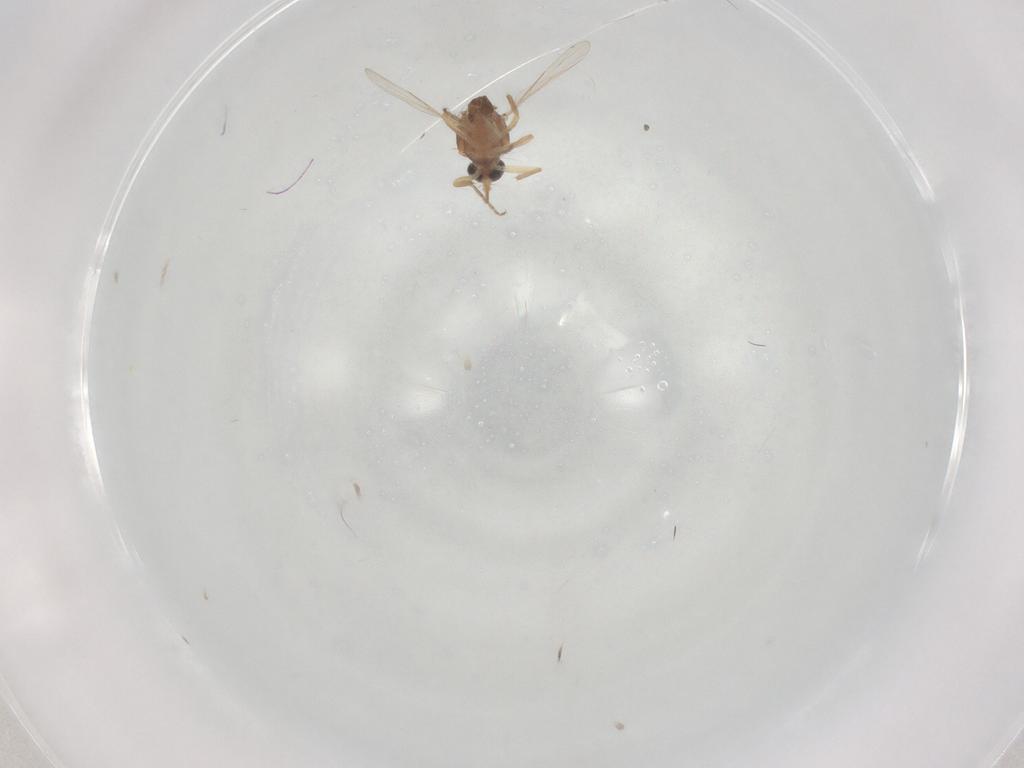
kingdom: Animalia
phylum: Arthropoda
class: Insecta
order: Diptera
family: Ceratopogonidae
